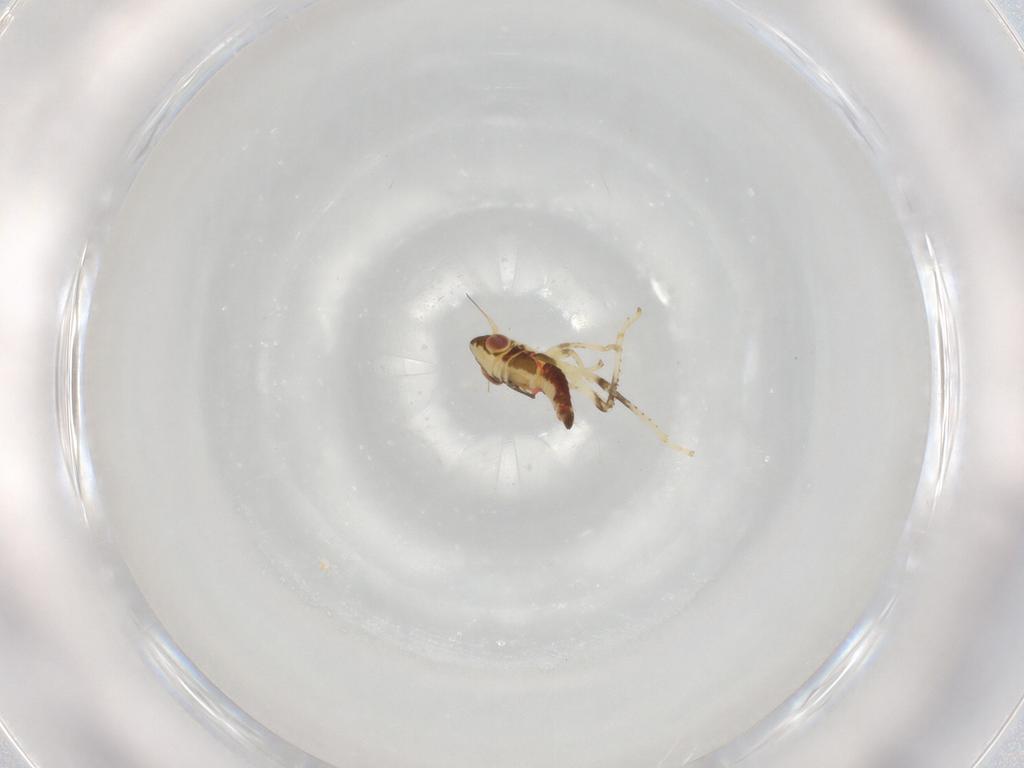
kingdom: Animalia
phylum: Arthropoda
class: Insecta
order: Hemiptera
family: Cicadellidae
